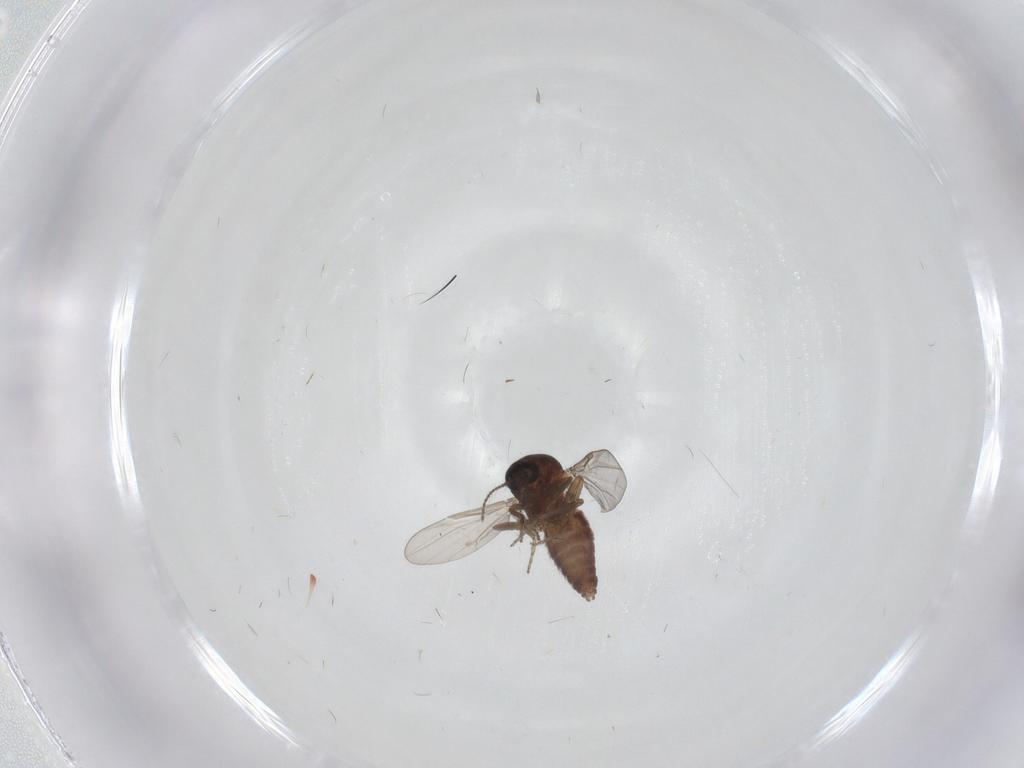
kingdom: Animalia
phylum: Arthropoda
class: Insecta
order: Diptera
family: Ceratopogonidae
